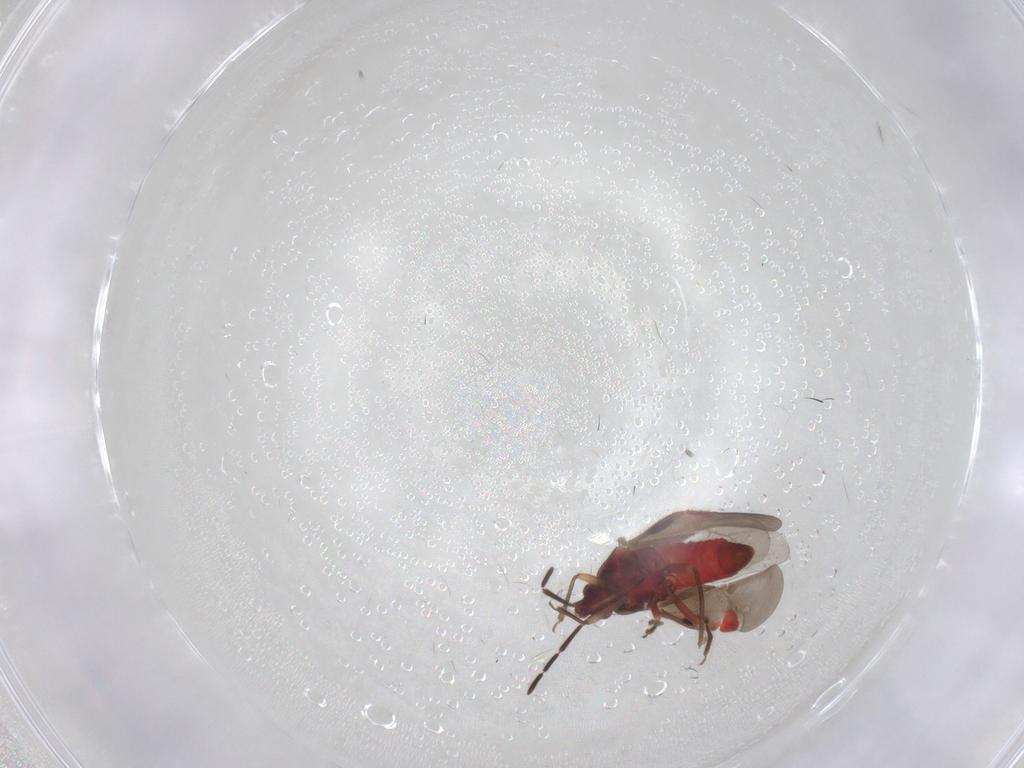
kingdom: Animalia
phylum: Arthropoda
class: Insecta
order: Hemiptera
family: Microphysidae
